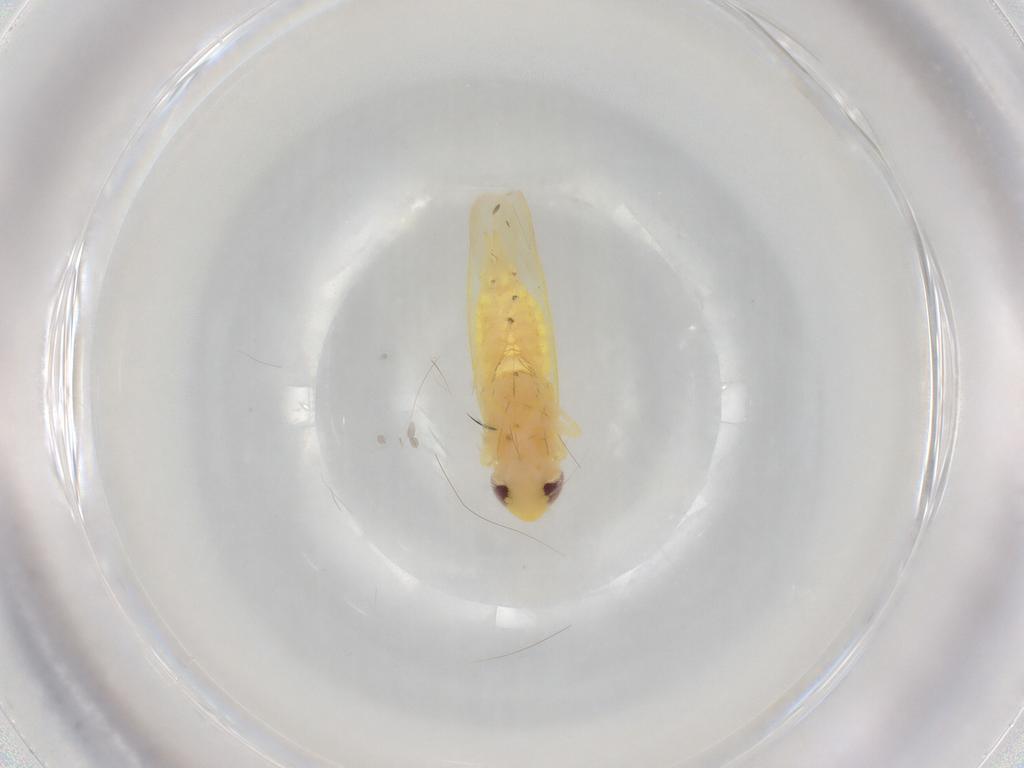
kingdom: Animalia
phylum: Arthropoda
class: Insecta
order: Hemiptera
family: Cicadellidae
